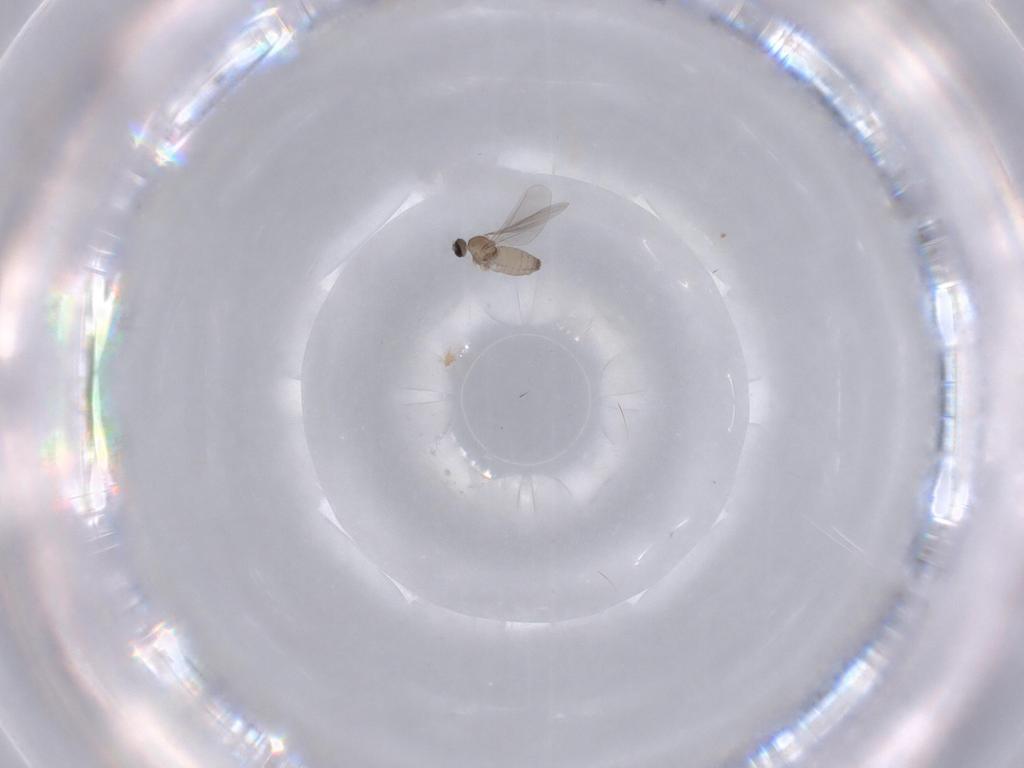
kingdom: Animalia
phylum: Arthropoda
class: Insecta
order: Diptera
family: Cecidomyiidae
